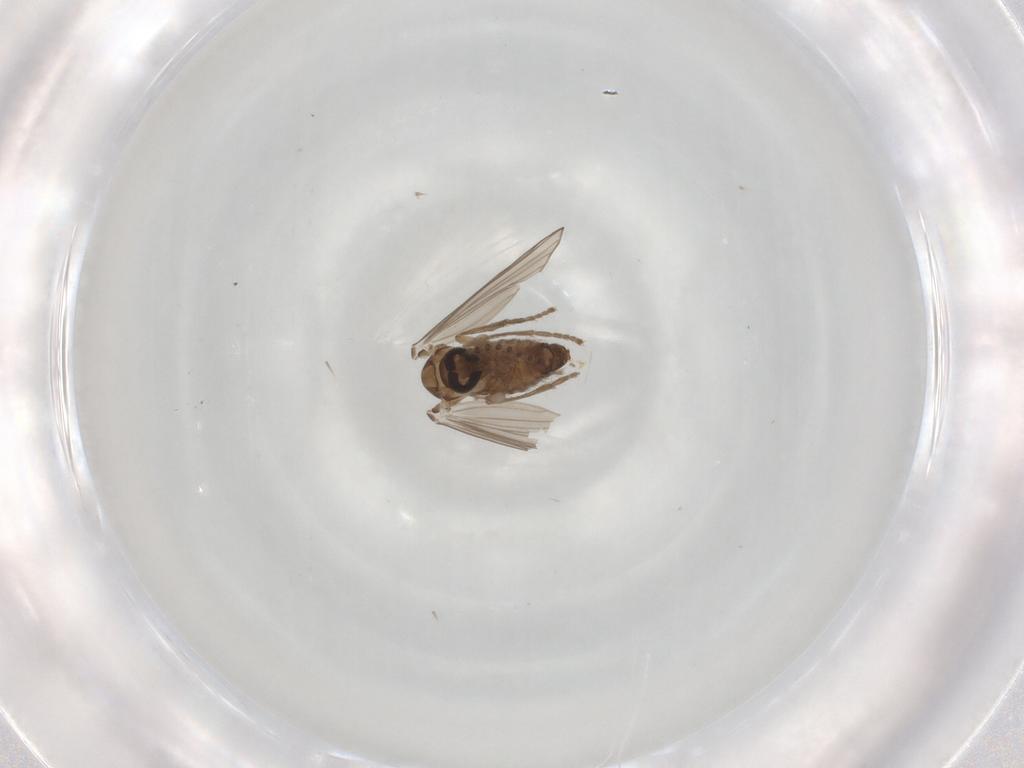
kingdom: Animalia
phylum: Arthropoda
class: Insecta
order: Diptera
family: Psychodidae
